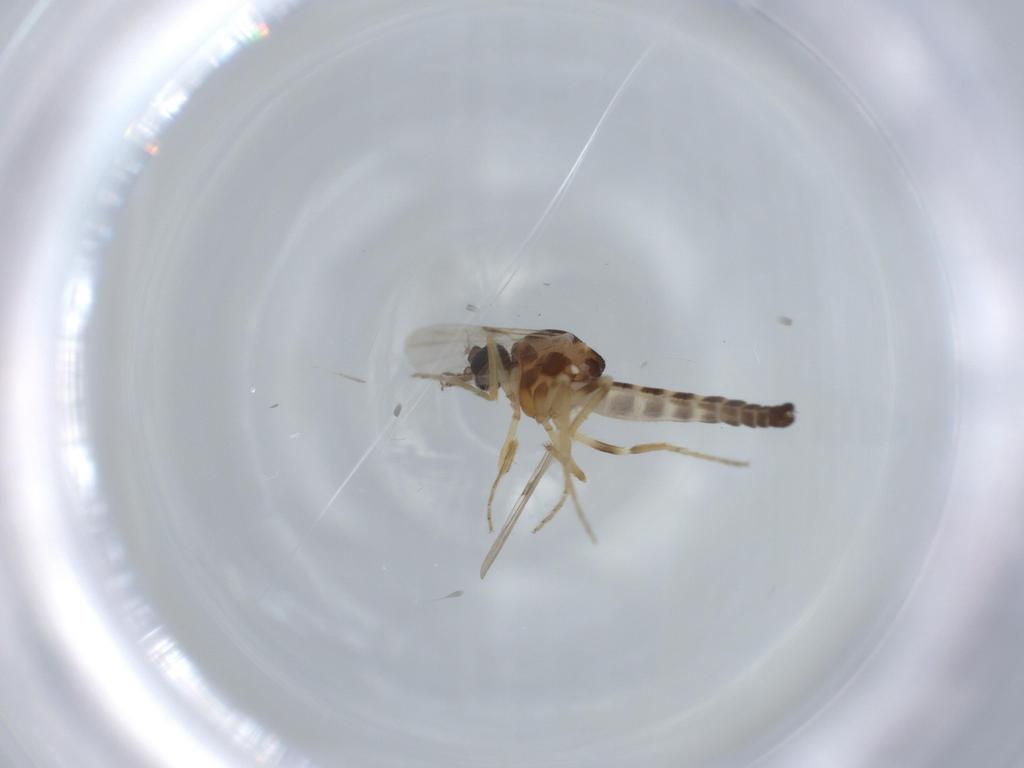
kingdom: Animalia
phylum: Arthropoda
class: Insecta
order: Diptera
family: Ceratopogonidae
